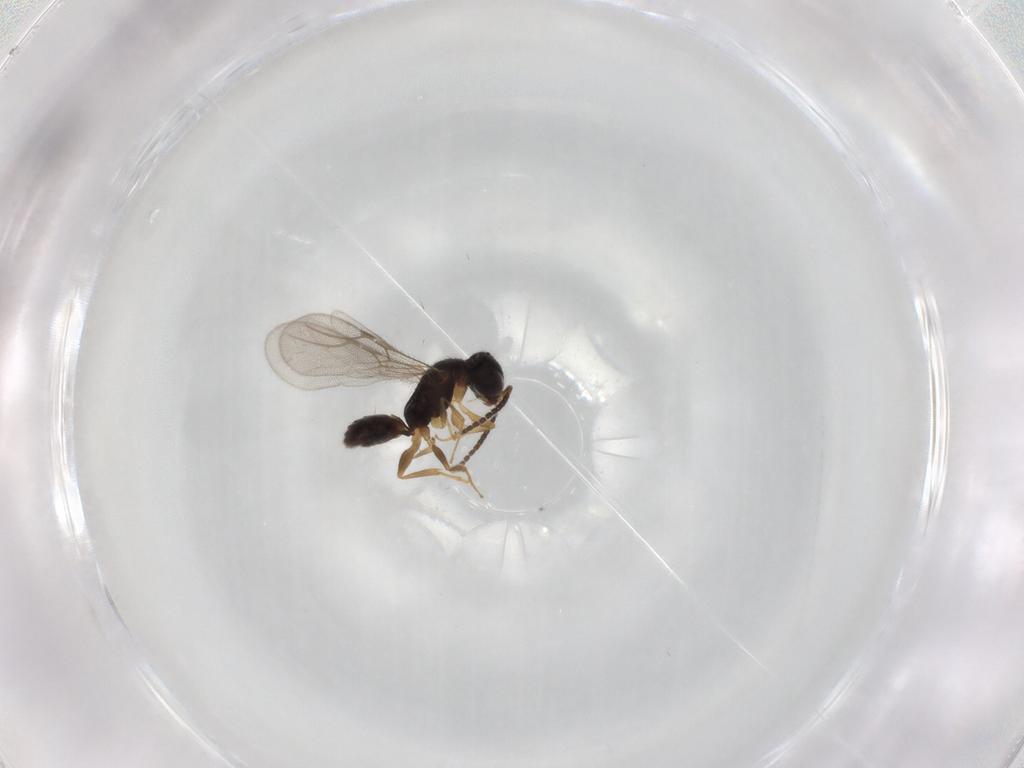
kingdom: Animalia
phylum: Arthropoda
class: Insecta
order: Hymenoptera
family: Bethylidae
